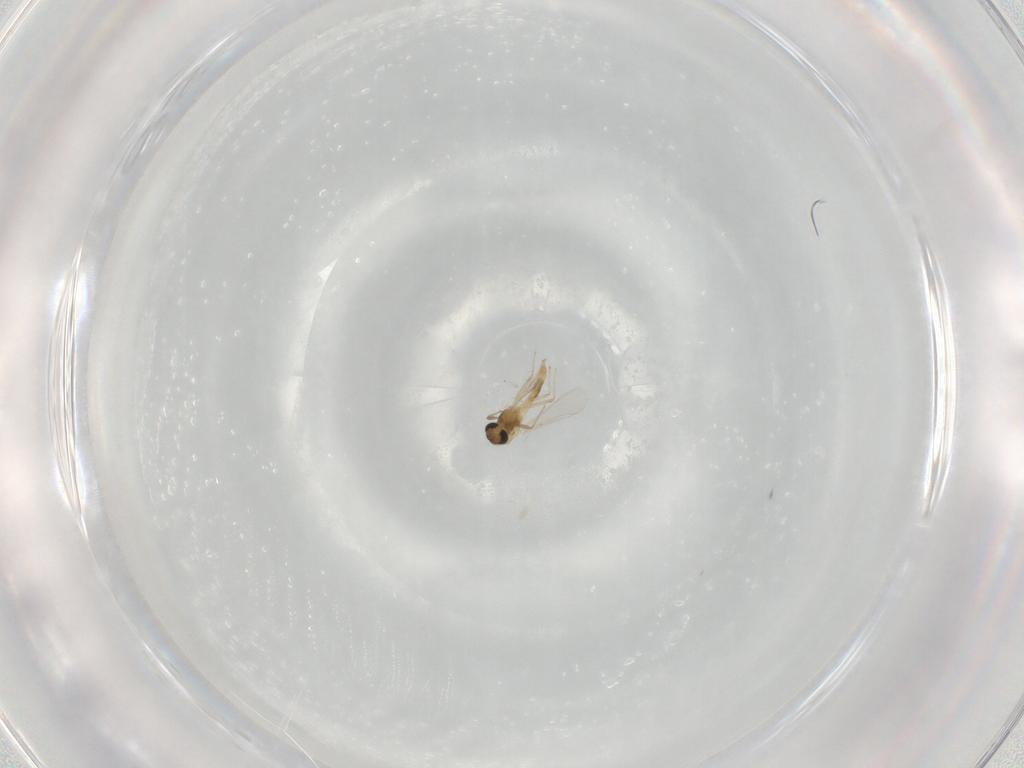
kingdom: Animalia
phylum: Arthropoda
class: Insecta
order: Diptera
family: Chironomidae
